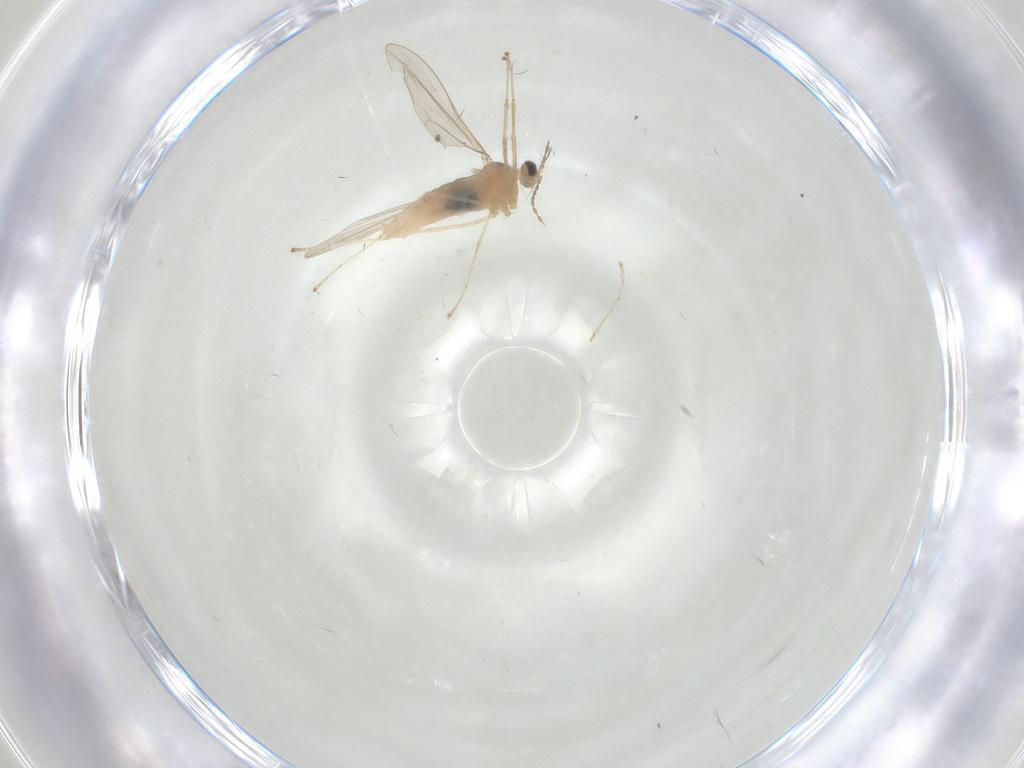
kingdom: Animalia
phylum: Arthropoda
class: Insecta
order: Diptera
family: Cecidomyiidae
